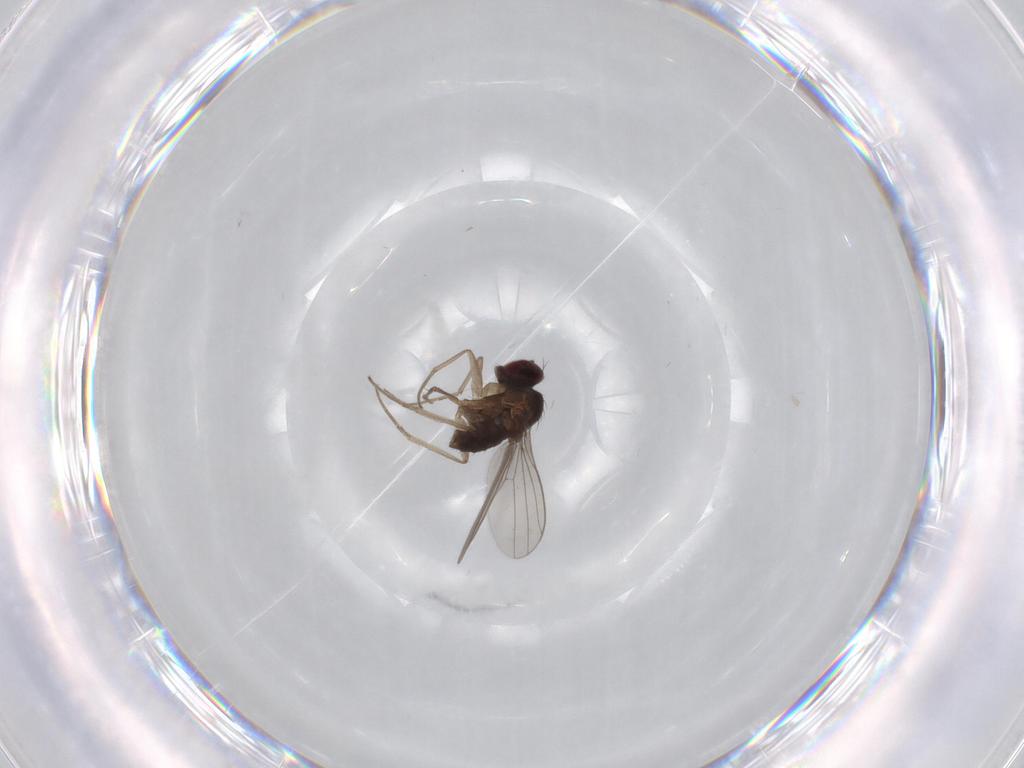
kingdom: Animalia
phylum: Arthropoda
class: Insecta
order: Diptera
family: Dolichopodidae
